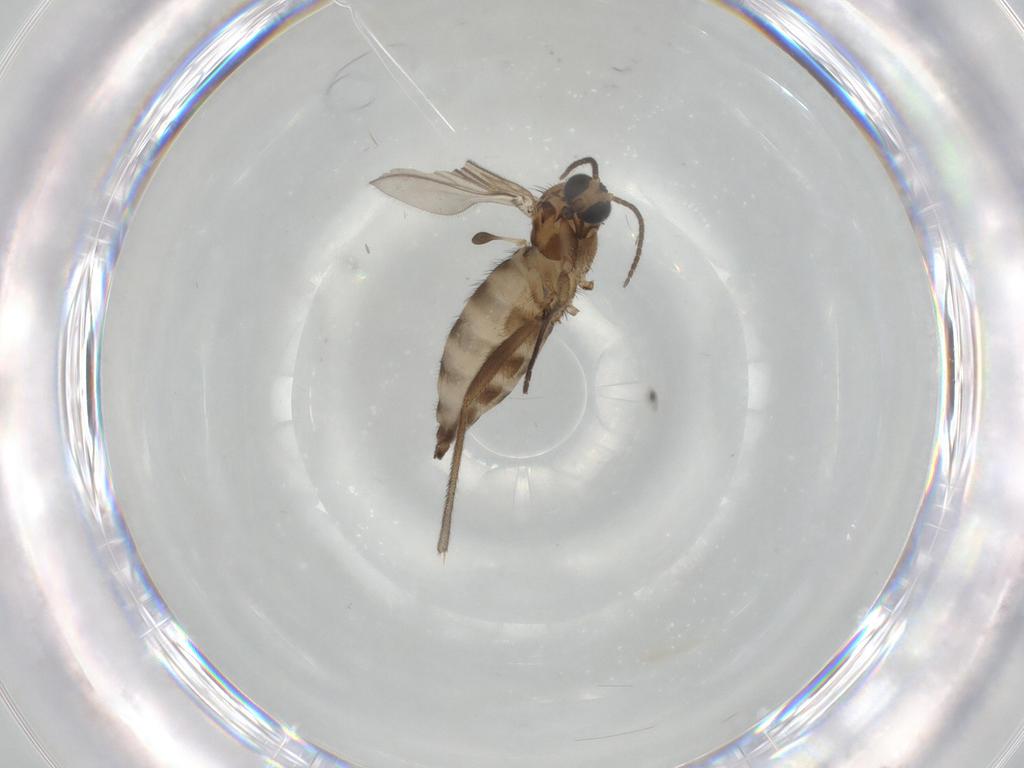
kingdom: Animalia
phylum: Arthropoda
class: Insecta
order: Diptera
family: Sciaridae
